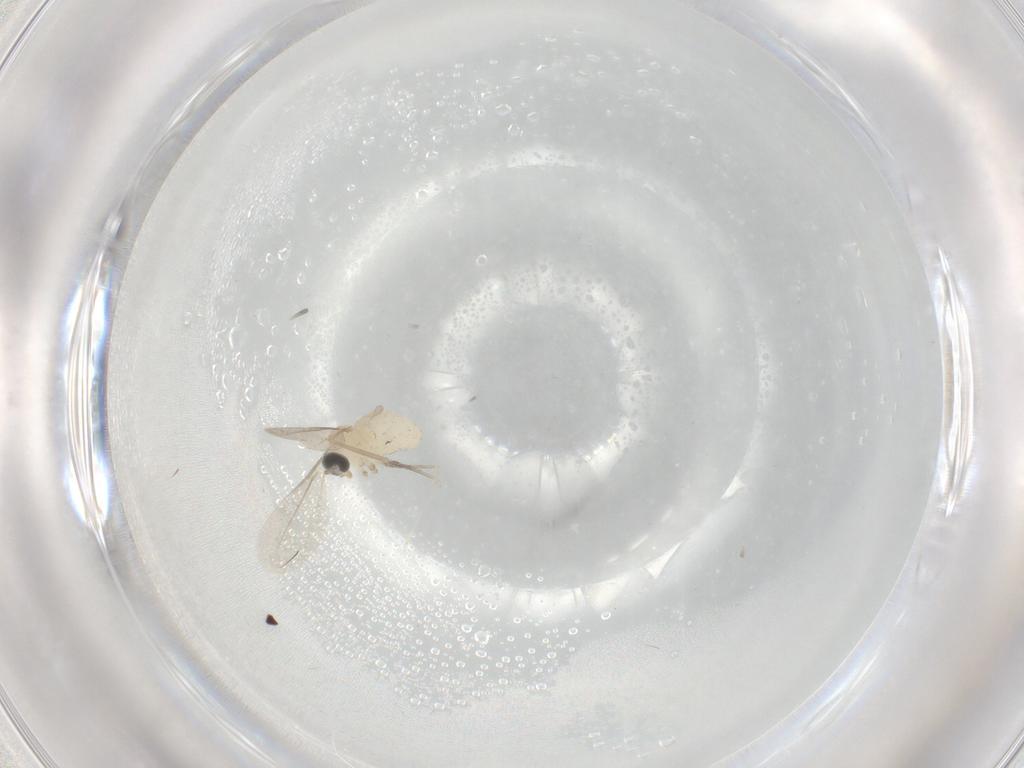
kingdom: Animalia
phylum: Arthropoda
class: Insecta
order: Diptera
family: Cecidomyiidae
